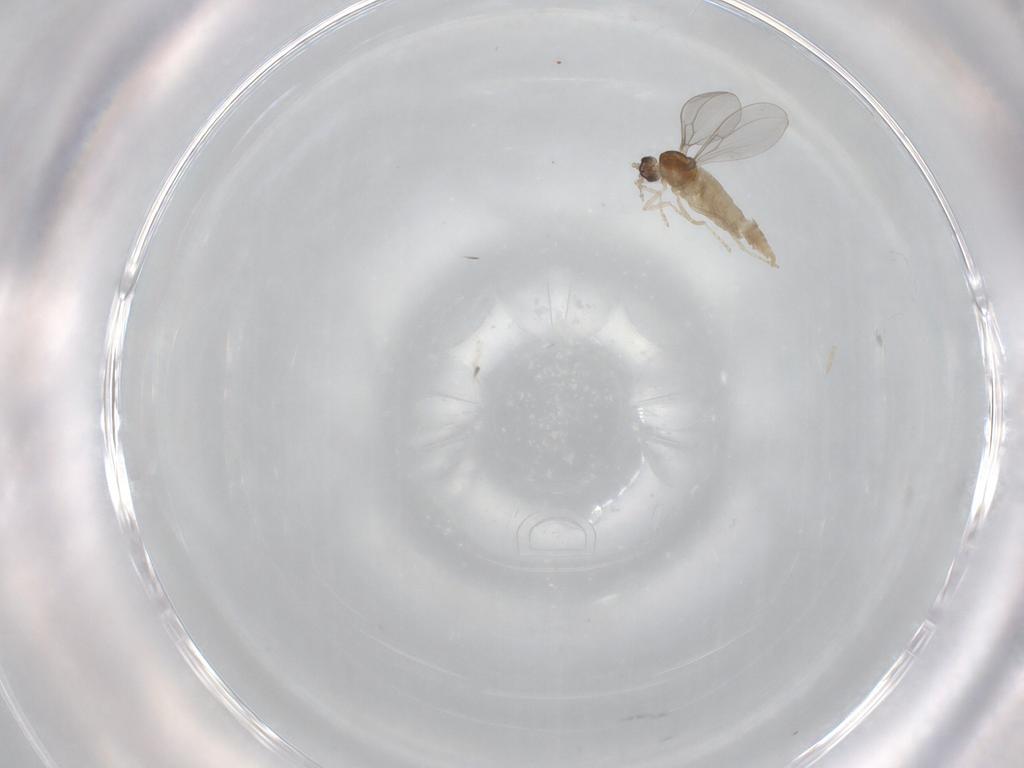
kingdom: Animalia
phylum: Arthropoda
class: Insecta
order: Diptera
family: Cecidomyiidae
